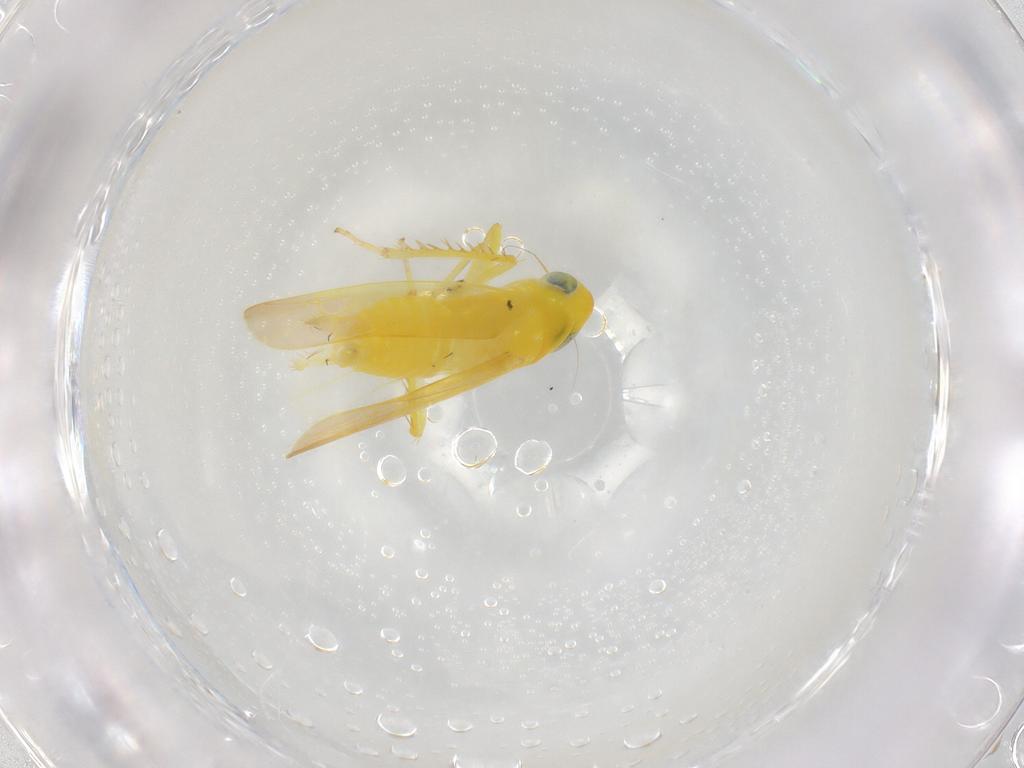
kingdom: Animalia
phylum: Arthropoda
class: Insecta
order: Hemiptera
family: Cicadellidae
